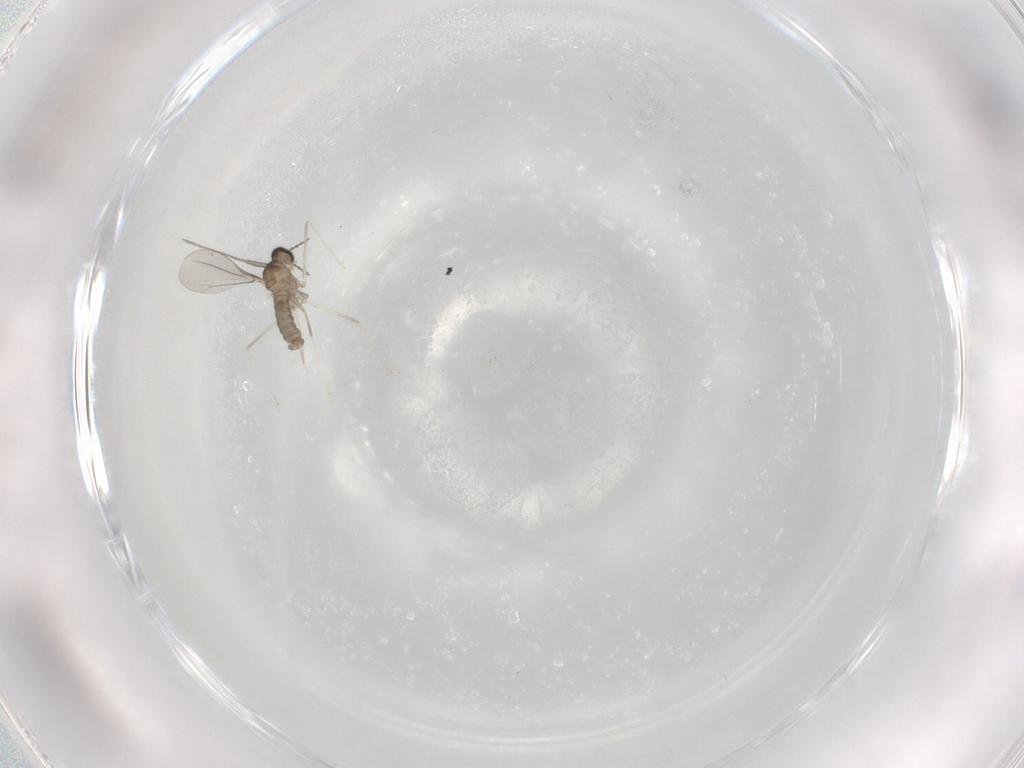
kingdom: Animalia
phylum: Arthropoda
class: Insecta
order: Diptera
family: Cecidomyiidae
